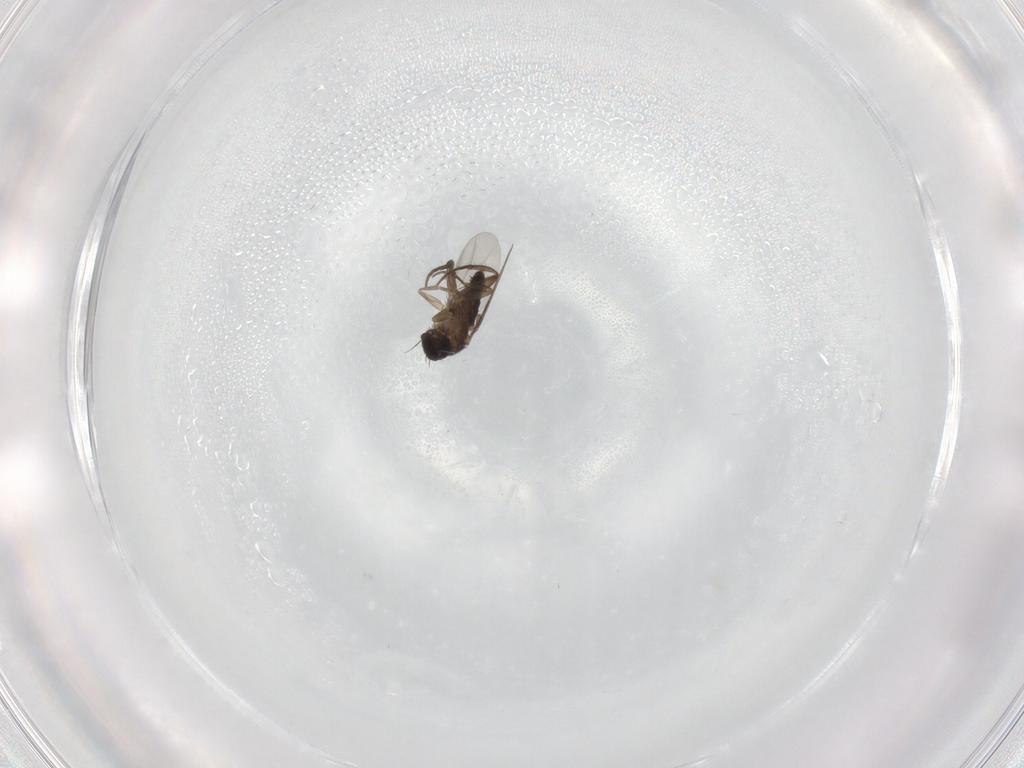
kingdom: Animalia
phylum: Arthropoda
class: Insecta
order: Diptera
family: Phoridae
